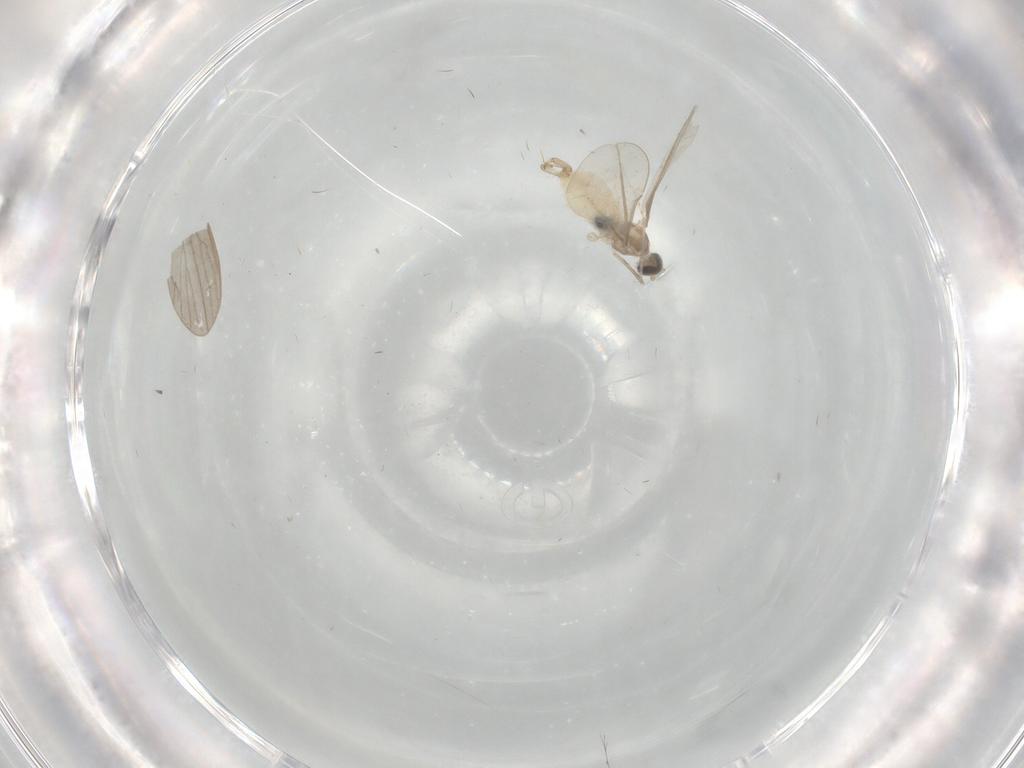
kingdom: Animalia
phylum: Arthropoda
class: Insecta
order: Diptera
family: Cecidomyiidae
